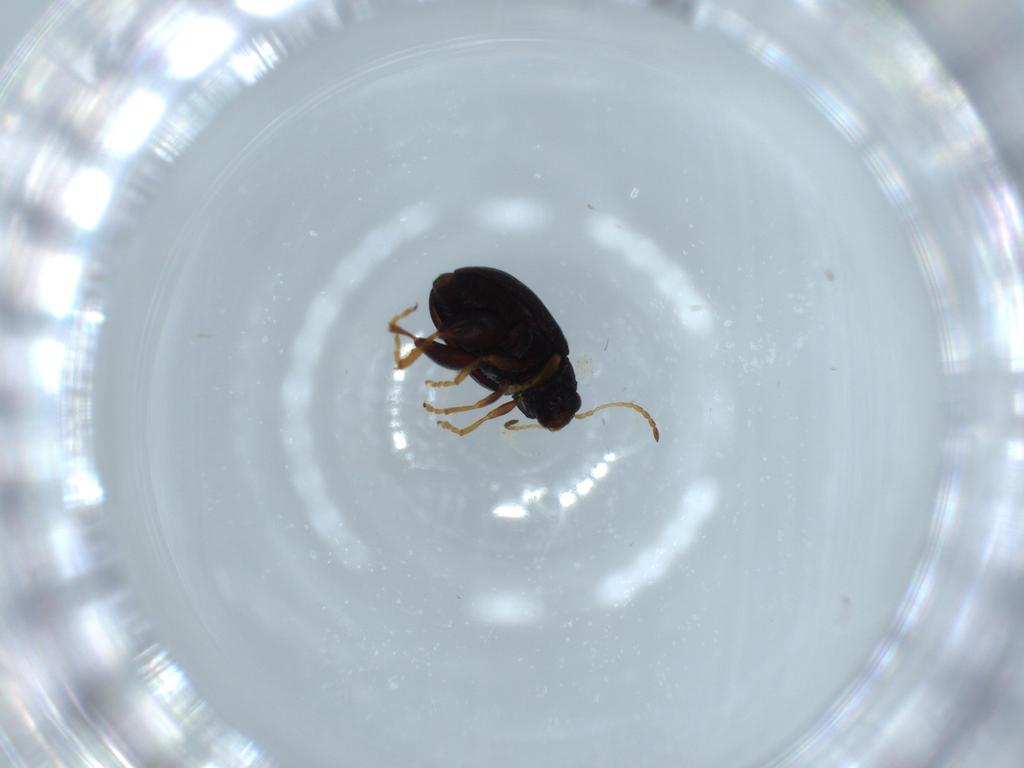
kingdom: Animalia
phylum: Arthropoda
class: Insecta
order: Coleoptera
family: Chrysomelidae
